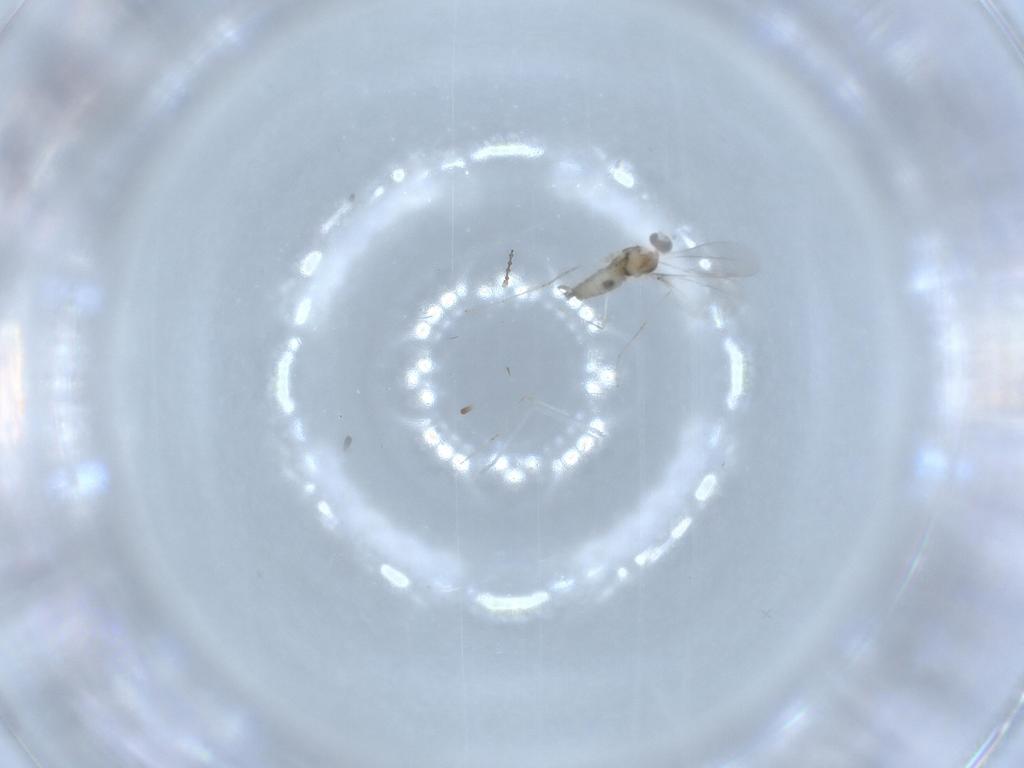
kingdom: Animalia
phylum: Arthropoda
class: Insecta
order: Diptera
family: Cecidomyiidae
